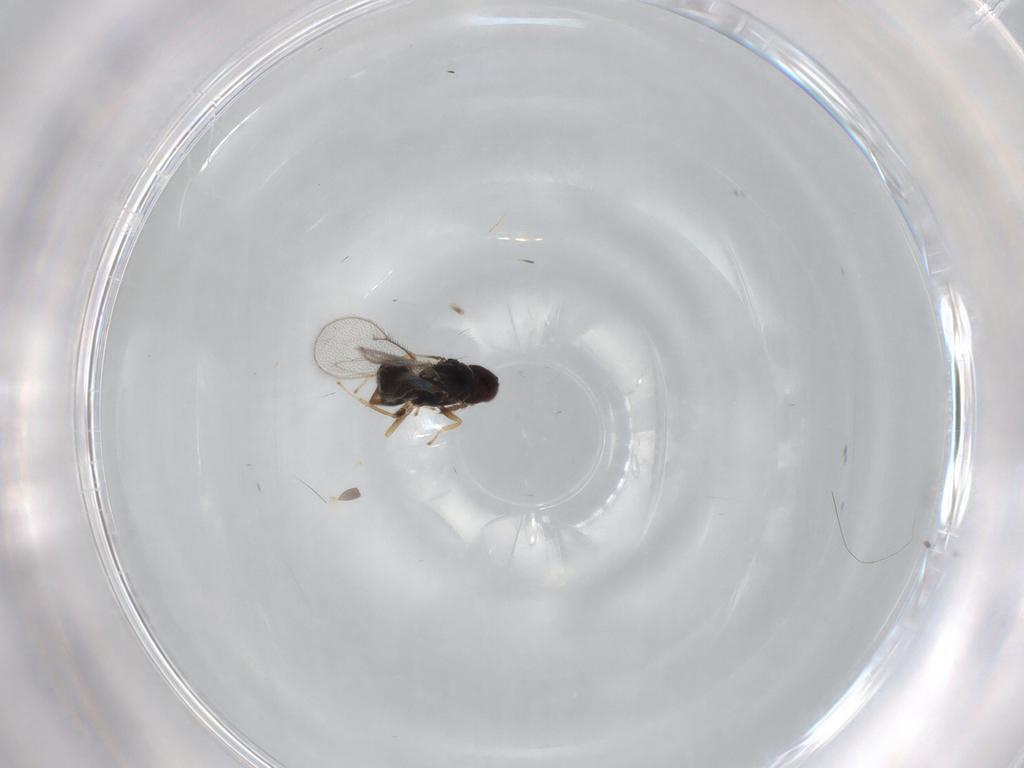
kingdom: Animalia
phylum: Arthropoda
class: Insecta
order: Hymenoptera
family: Eulophidae
